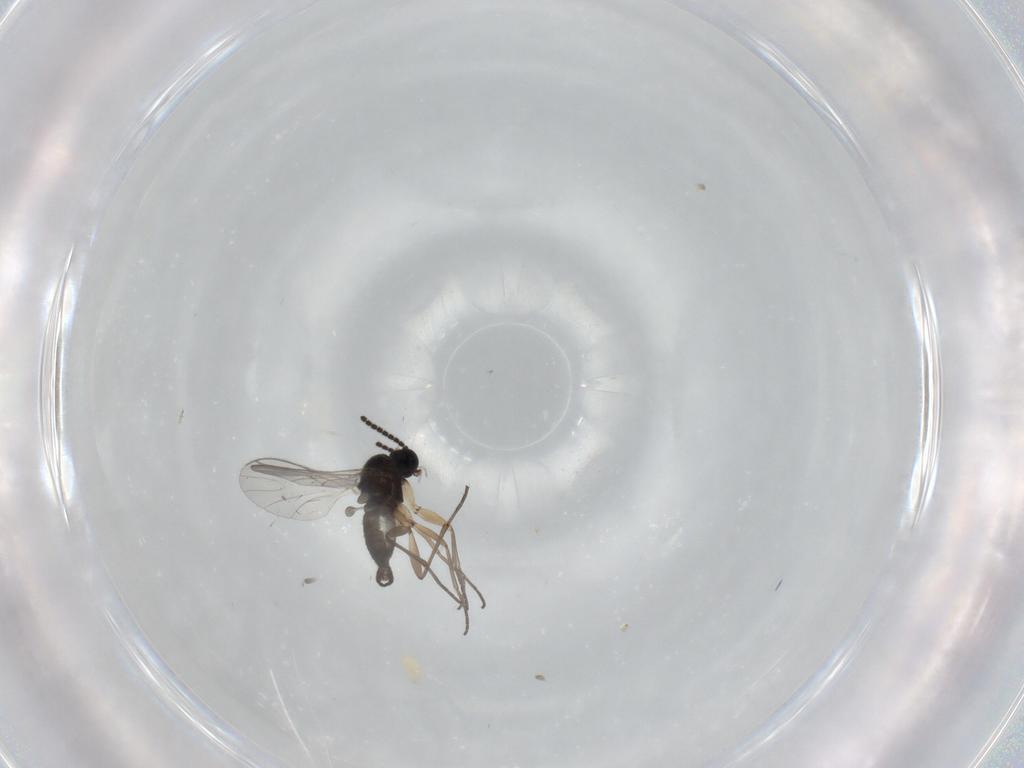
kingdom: Animalia
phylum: Arthropoda
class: Insecta
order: Diptera
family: Sciaridae
